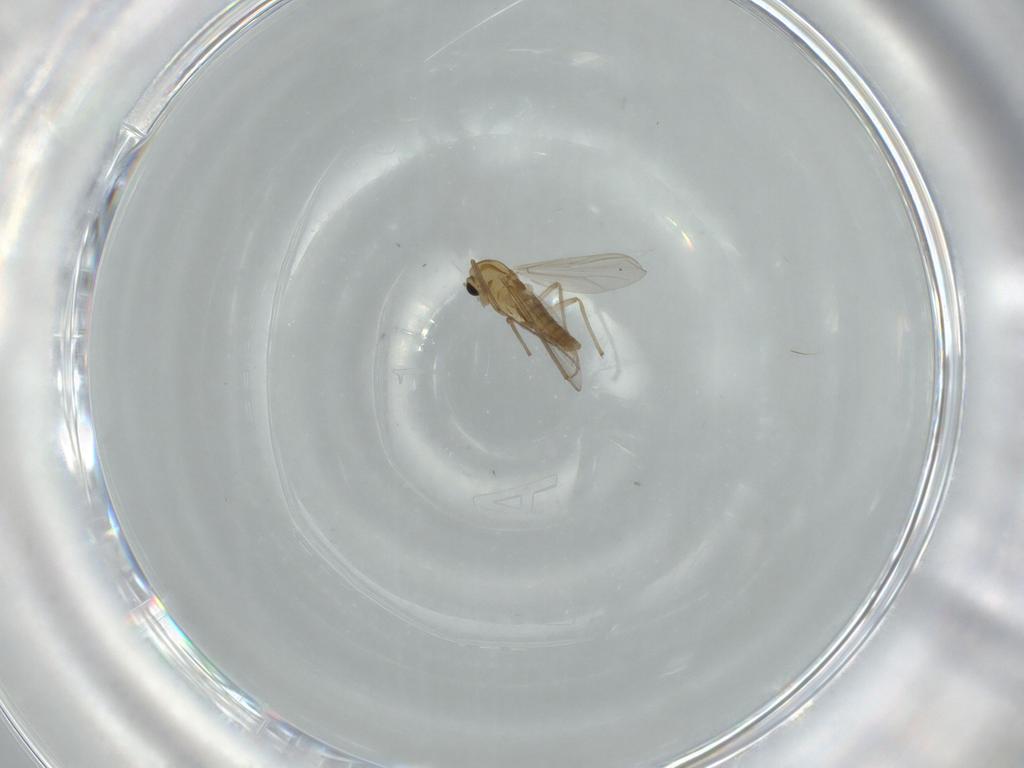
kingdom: Animalia
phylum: Arthropoda
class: Insecta
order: Diptera
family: Chironomidae
